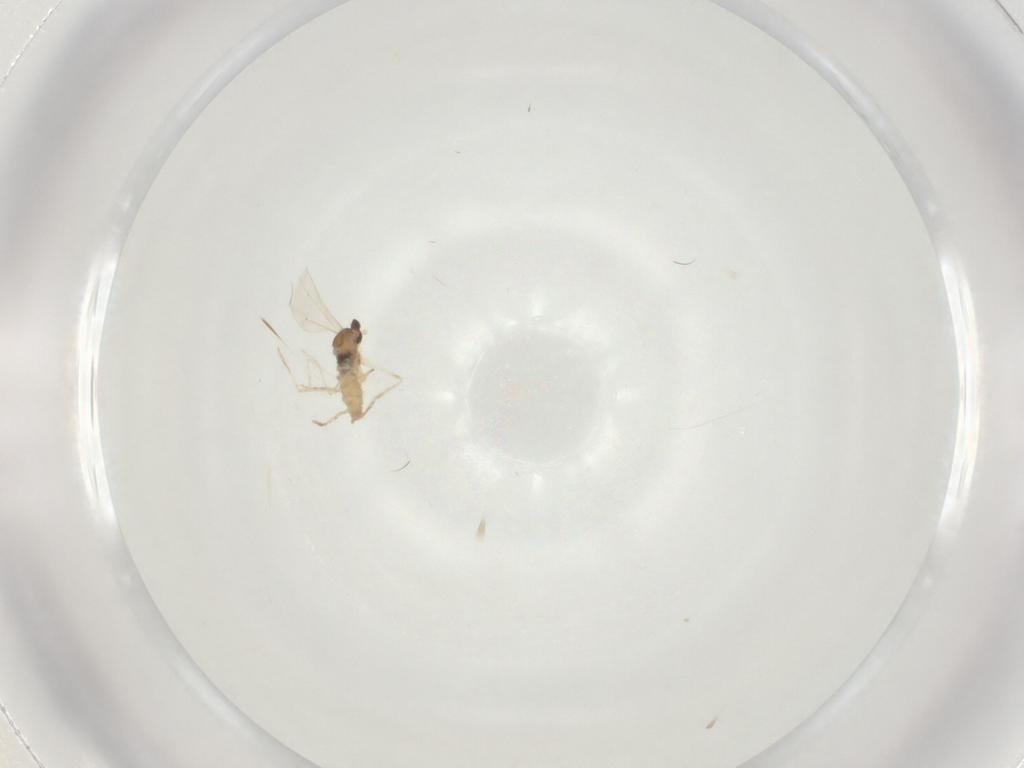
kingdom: Animalia
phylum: Arthropoda
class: Insecta
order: Diptera
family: Cecidomyiidae
